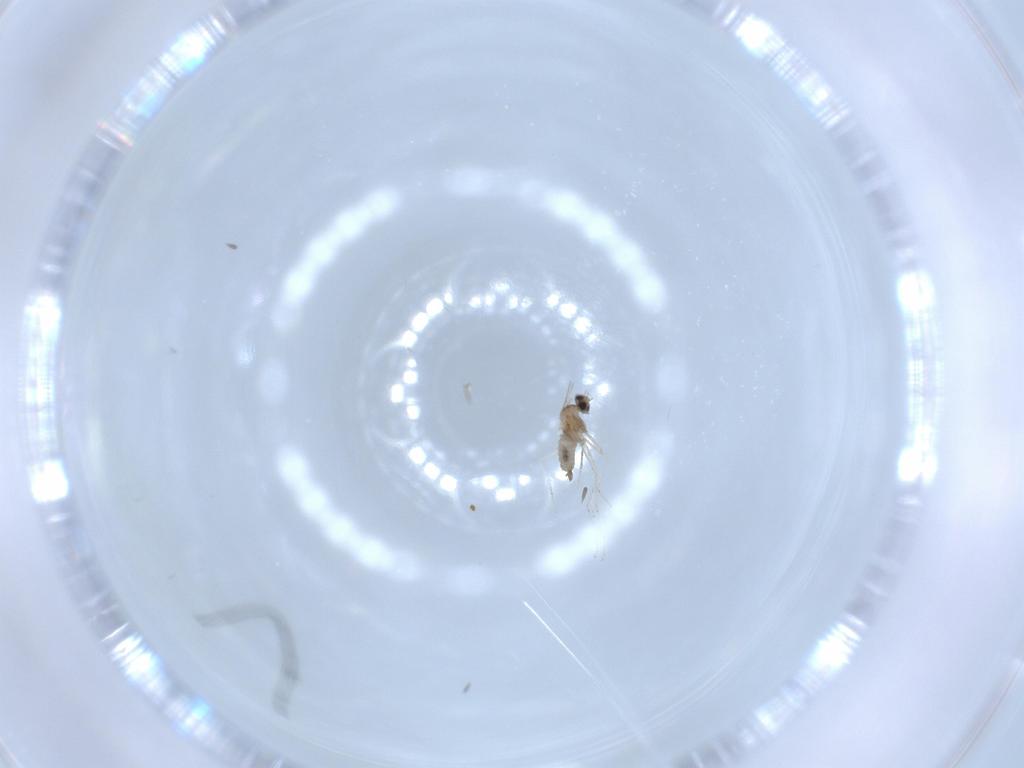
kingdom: Animalia
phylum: Arthropoda
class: Insecta
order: Diptera
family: Cecidomyiidae
